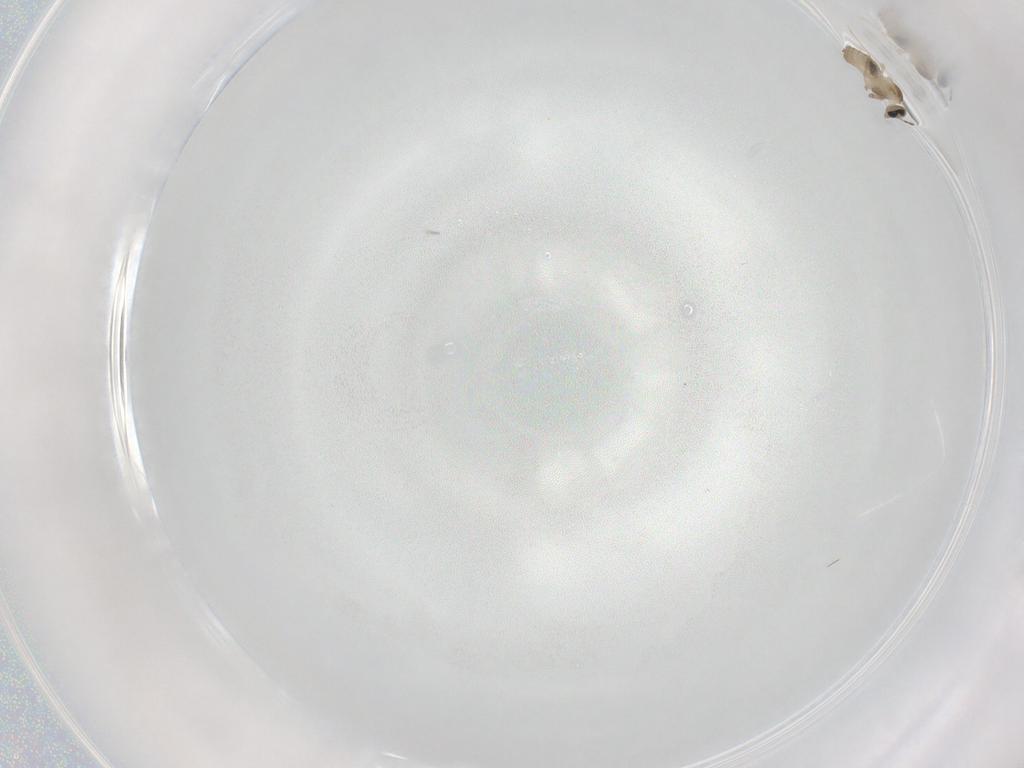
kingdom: Animalia
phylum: Arthropoda
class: Insecta
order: Diptera
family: Cecidomyiidae
